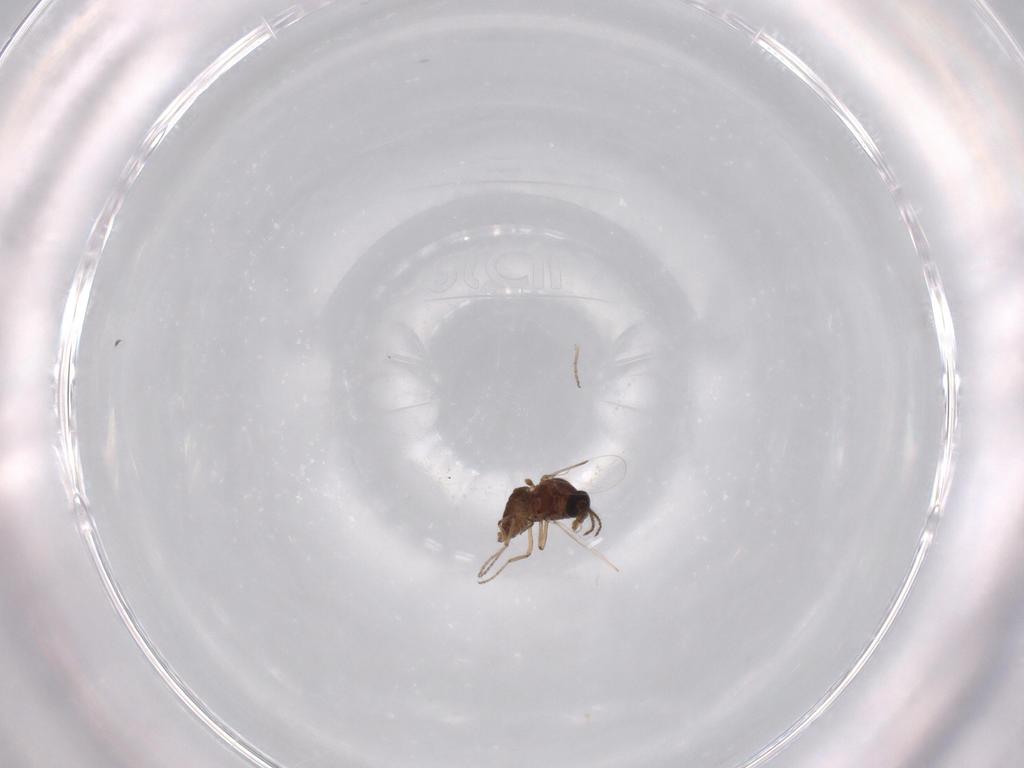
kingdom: Animalia
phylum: Arthropoda
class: Insecta
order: Diptera
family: Ceratopogonidae
